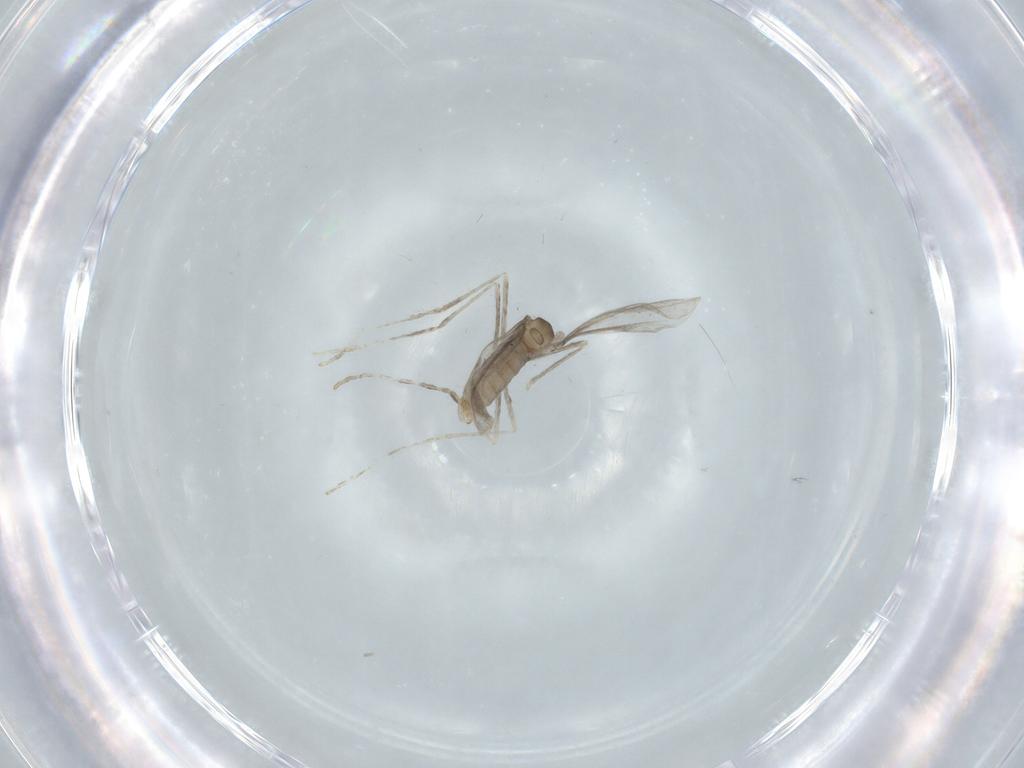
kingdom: Animalia
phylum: Arthropoda
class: Insecta
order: Diptera
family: Cecidomyiidae
